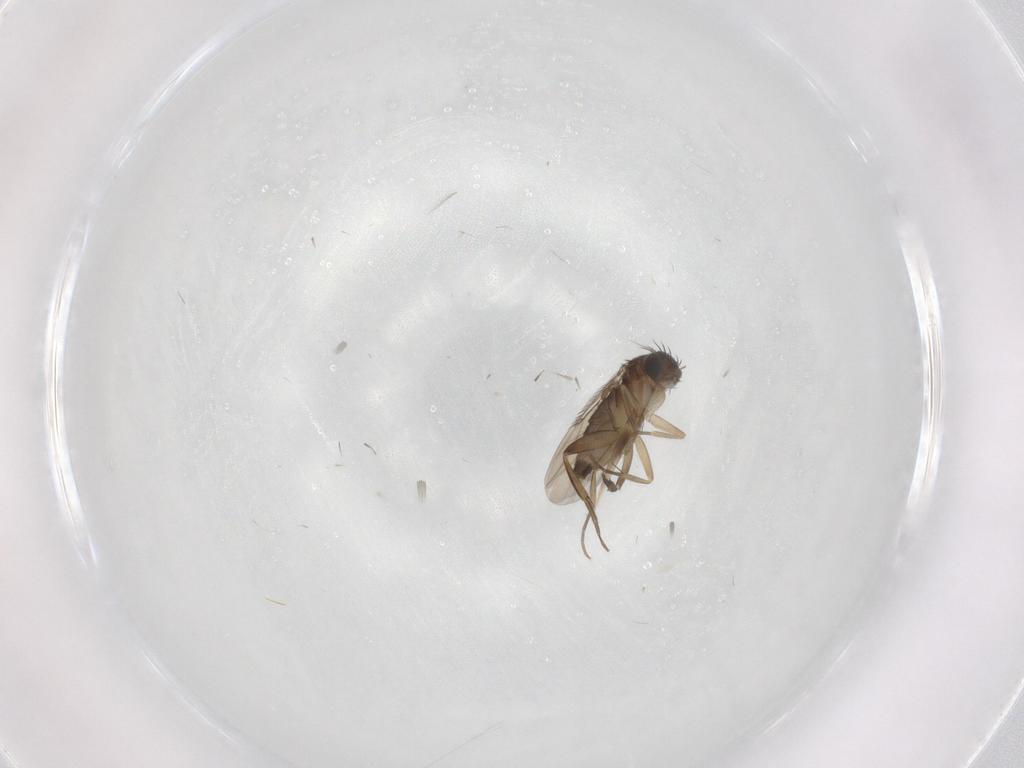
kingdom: Animalia
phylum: Arthropoda
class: Insecta
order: Diptera
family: Phoridae
